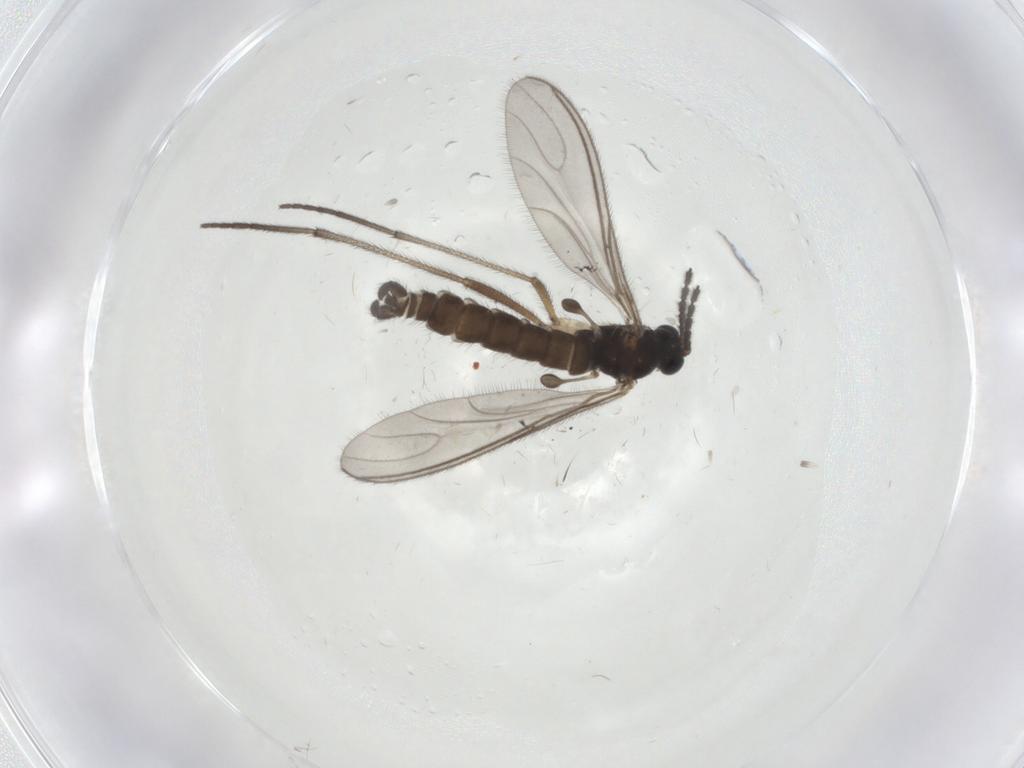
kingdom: Animalia
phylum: Arthropoda
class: Insecta
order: Diptera
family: Sciaridae
